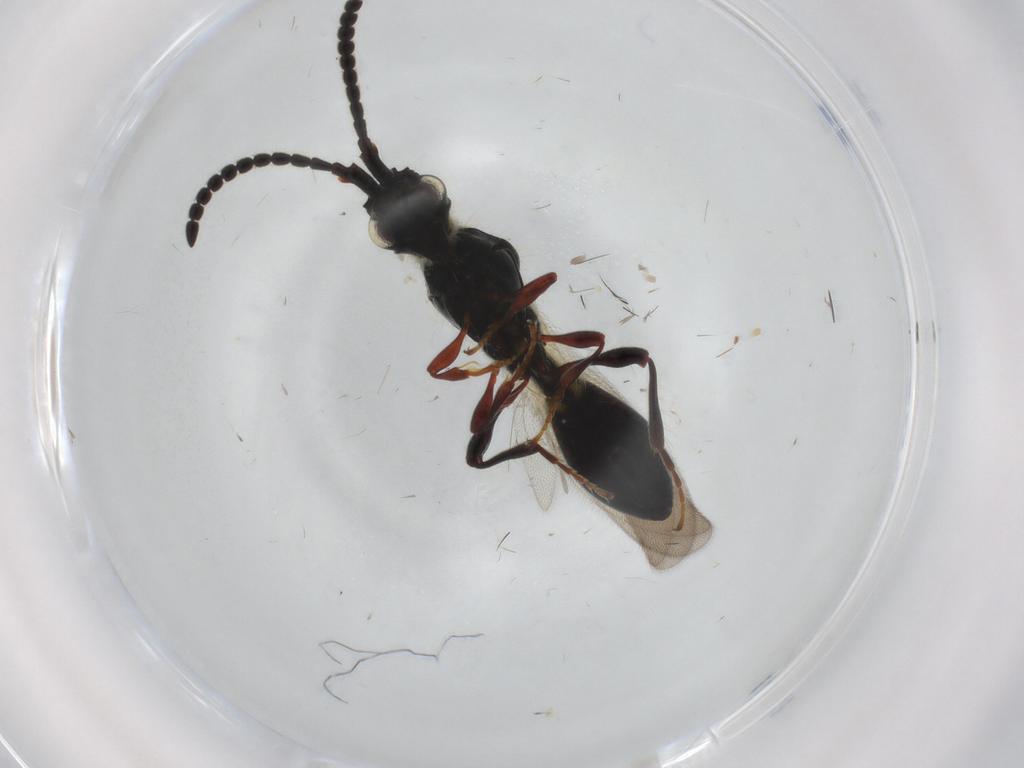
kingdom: Animalia
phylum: Arthropoda
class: Insecta
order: Hymenoptera
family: Diapriidae
